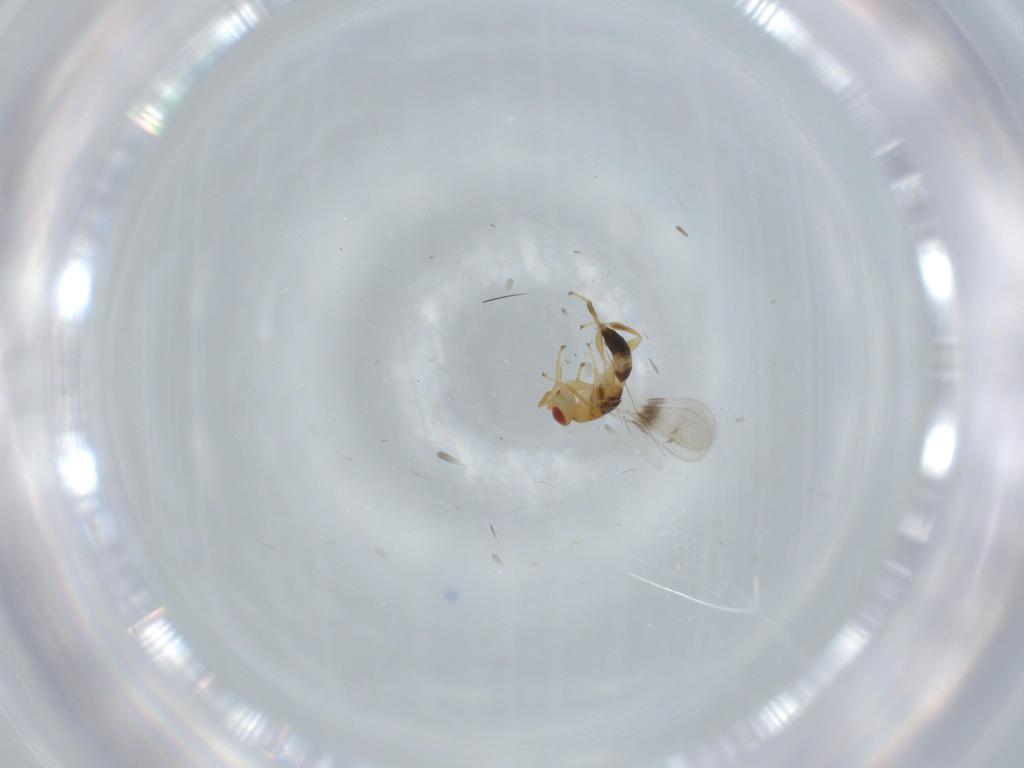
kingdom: Animalia
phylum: Arthropoda
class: Insecta
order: Hymenoptera
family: Torymidae
